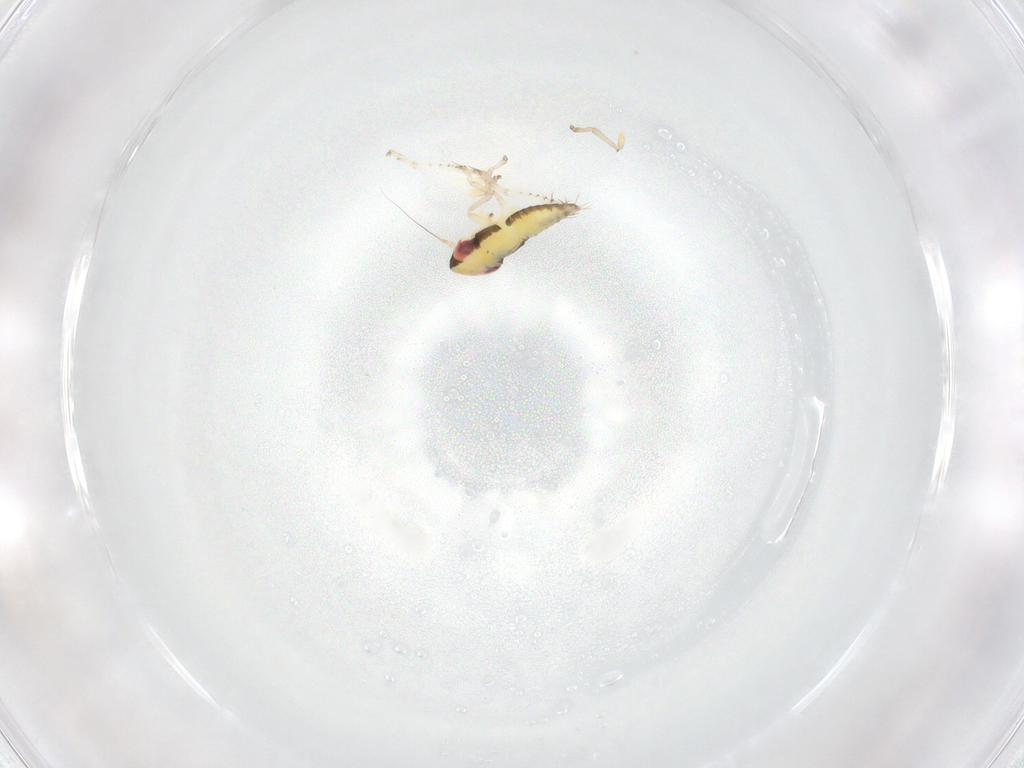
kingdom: Animalia
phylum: Arthropoda
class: Insecta
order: Hemiptera
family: Cicadellidae
